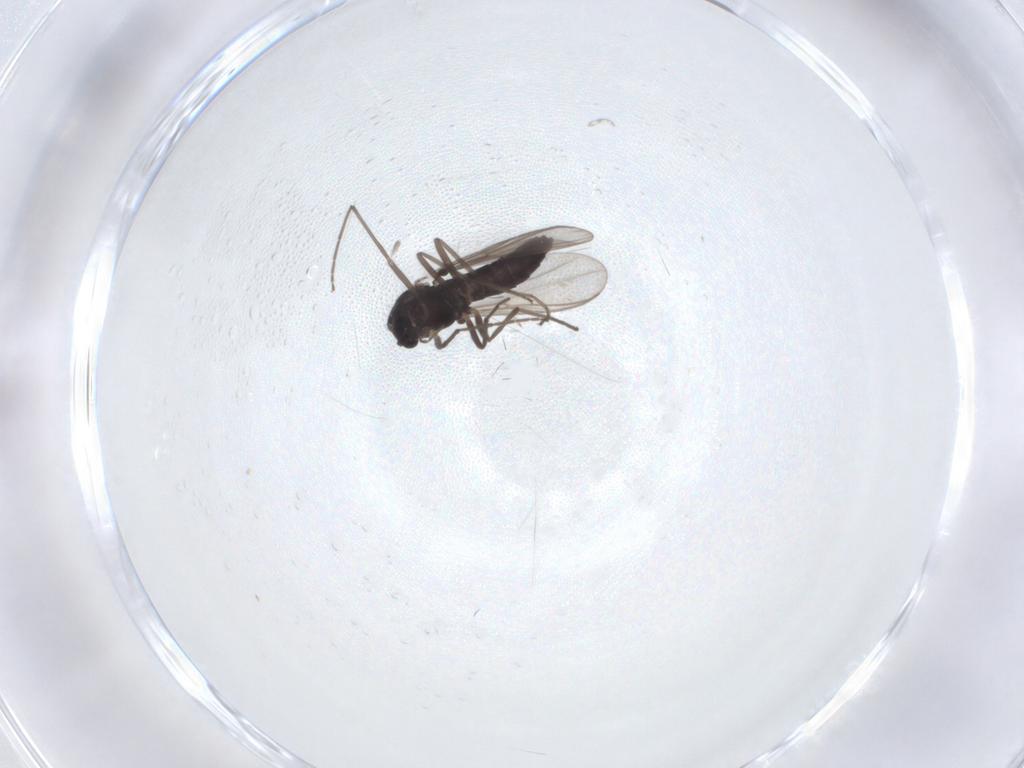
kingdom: Animalia
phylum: Arthropoda
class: Insecta
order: Diptera
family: Chironomidae
